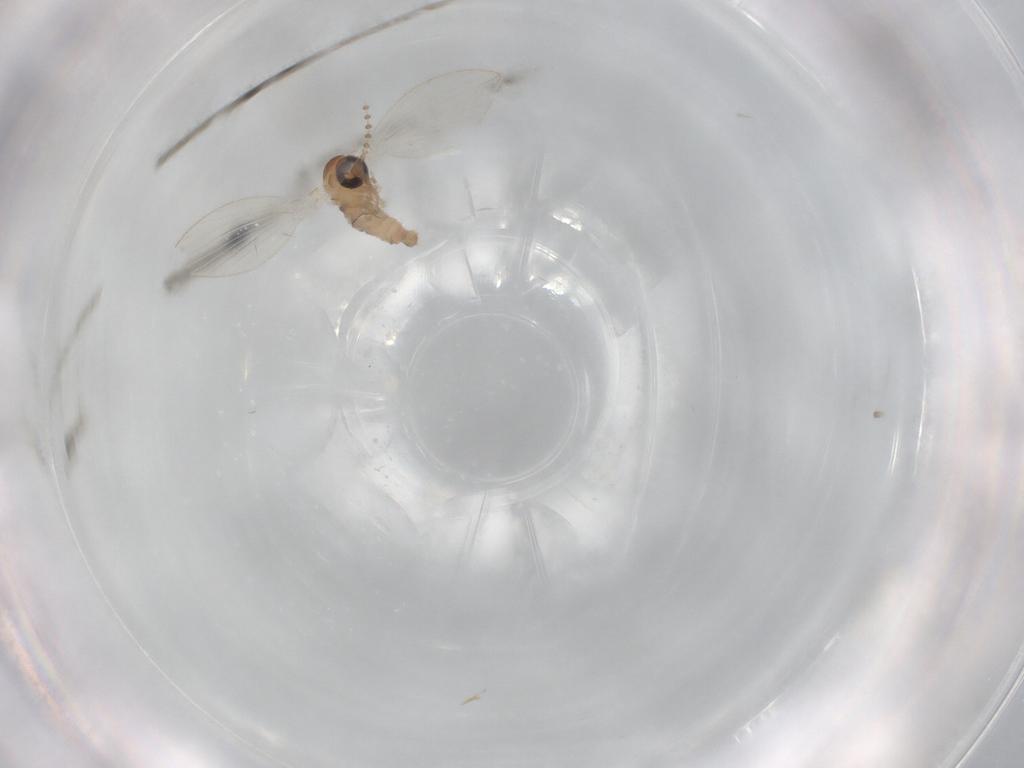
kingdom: Animalia
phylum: Arthropoda
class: Insecta
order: Diptera
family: Psychodidae
